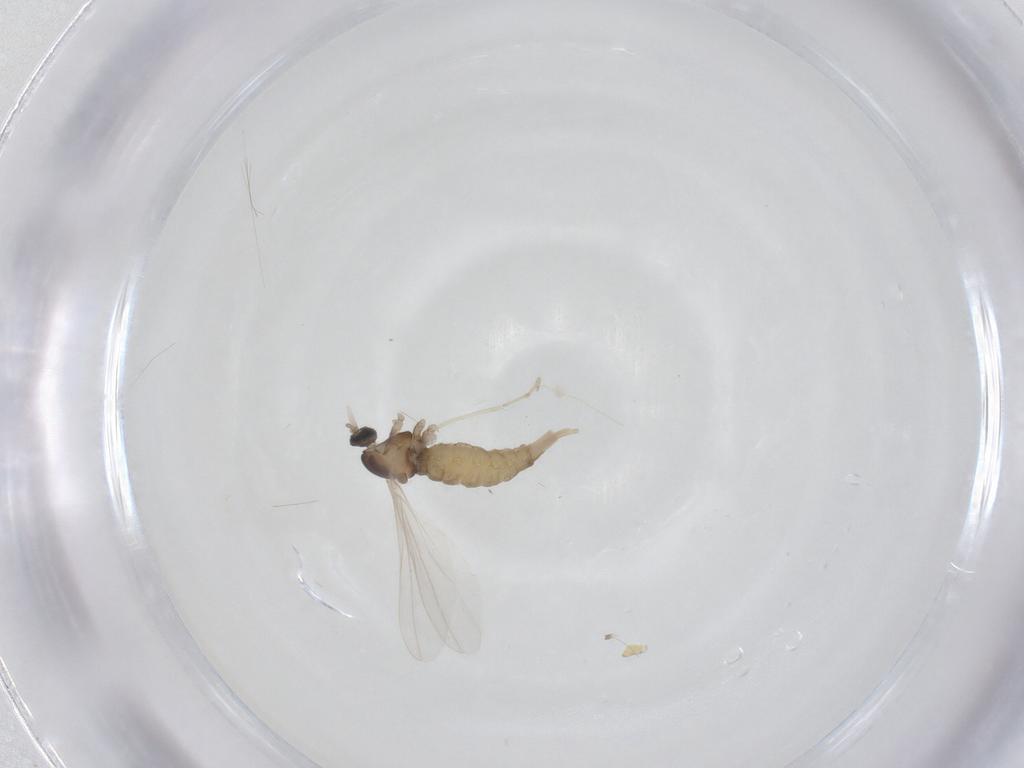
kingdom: Animalia
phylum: Arthropoda
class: Insecta
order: Diptera
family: Cecidomyiidae
